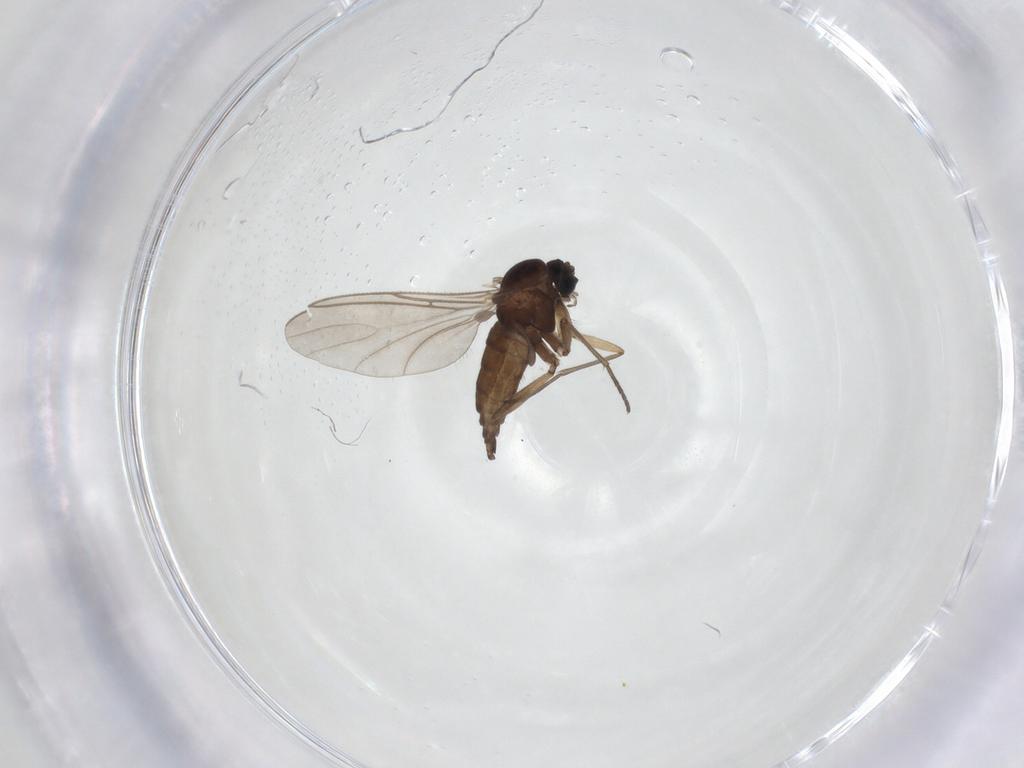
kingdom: Animalia
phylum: Arthropoda
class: Insecta
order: Diptera
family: Sciaridae
